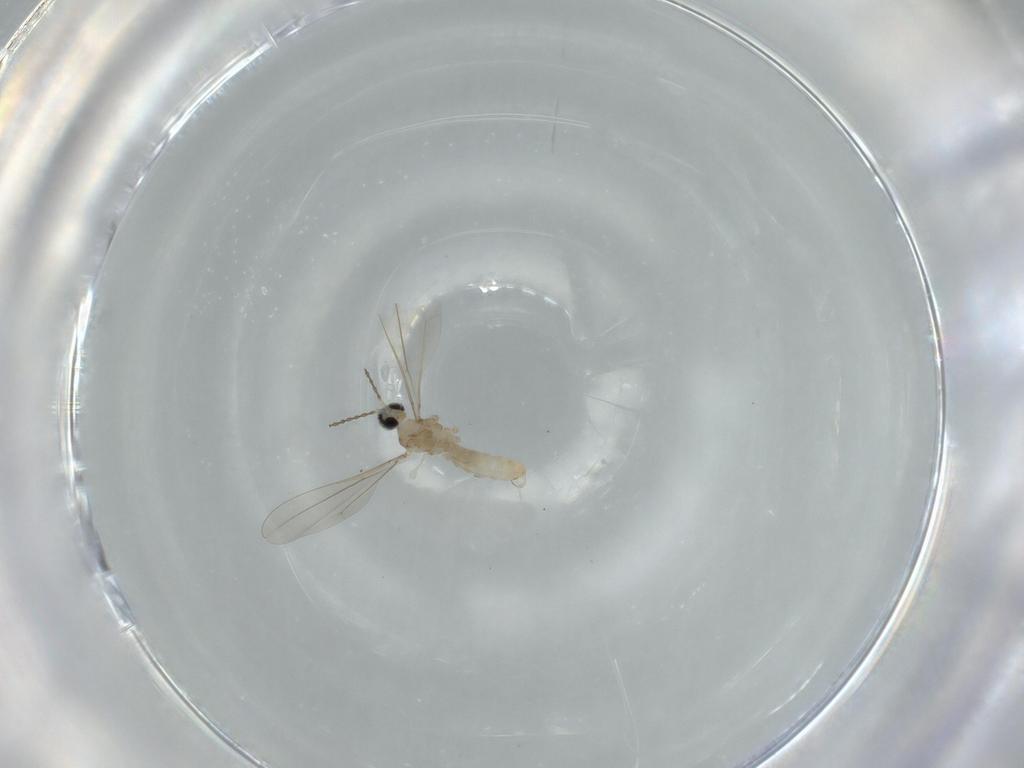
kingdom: Animalia
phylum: Arthropoda
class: Insecta
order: Diptera
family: Cecidomyiidae
